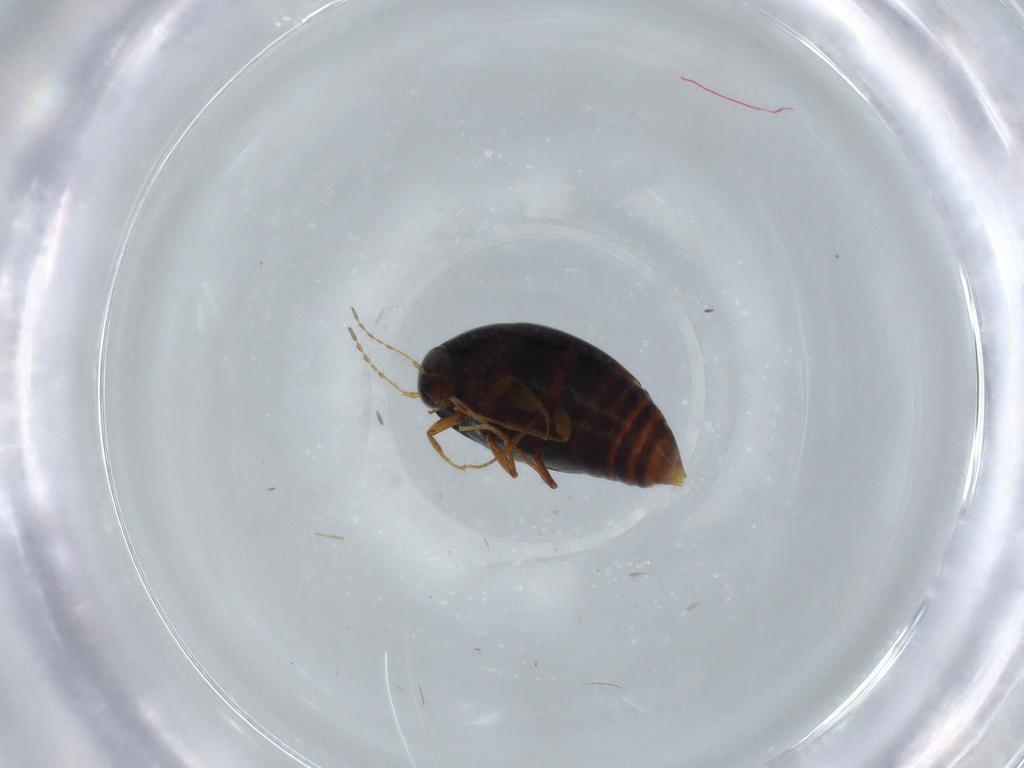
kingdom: Animalia
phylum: Arthropoda
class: Insecta
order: Coleoptera
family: Staphylinidae
